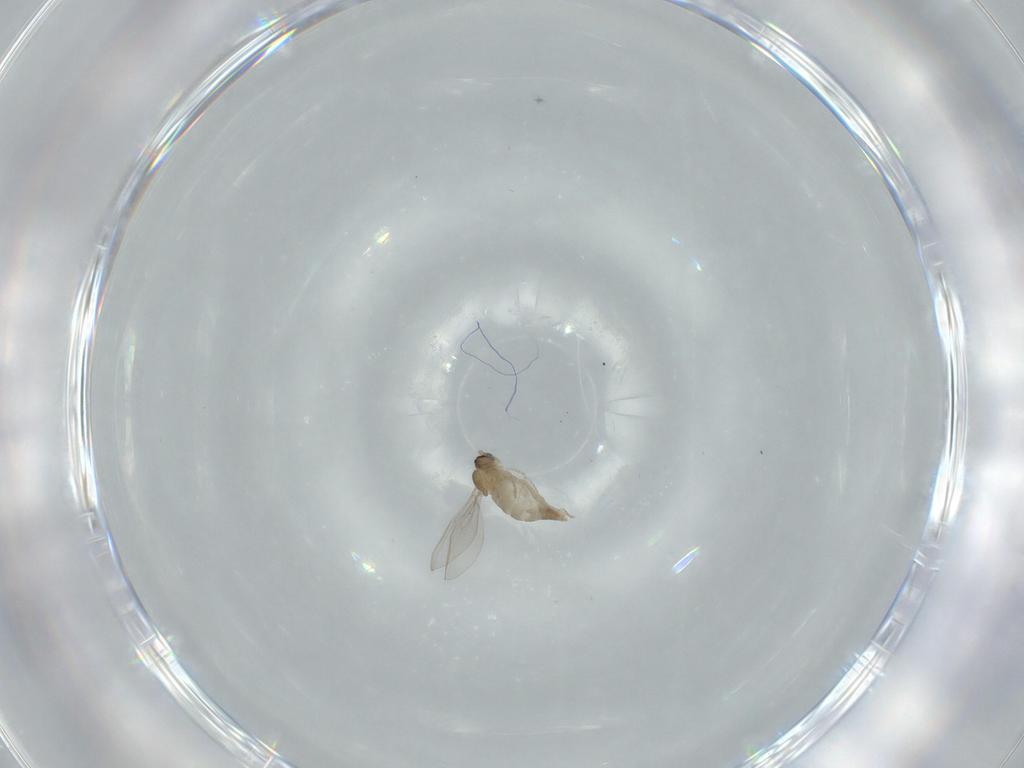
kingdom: Animalia
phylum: Arthropoda
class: Insecta
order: Diptera
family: Cecidomyiidae
